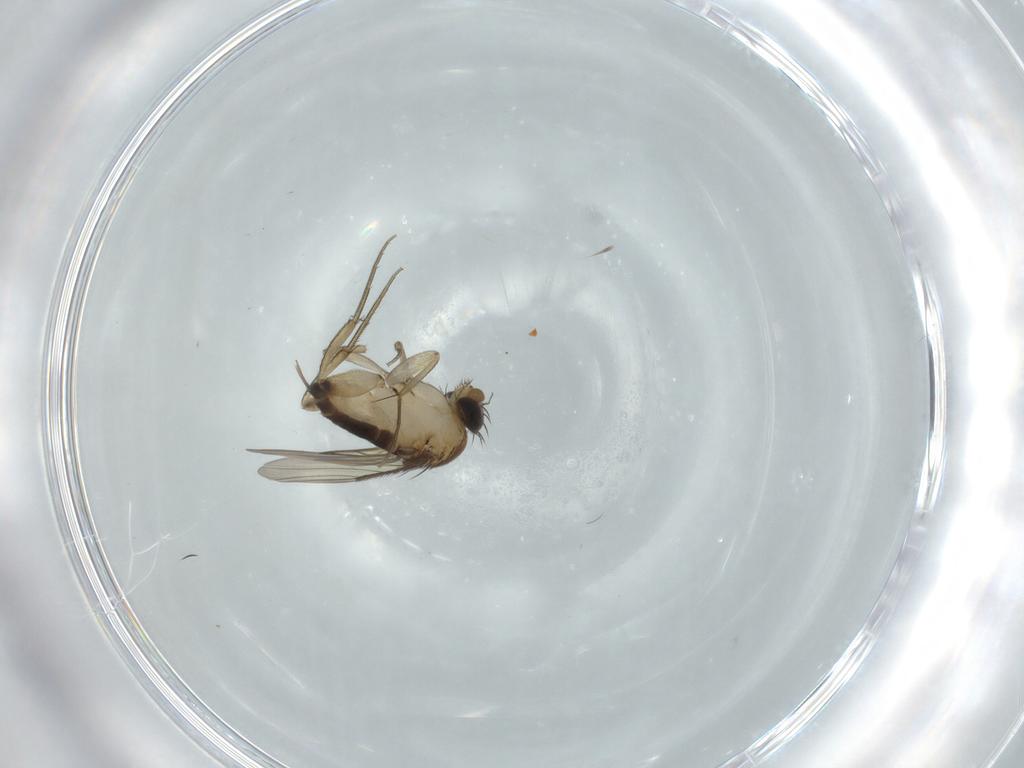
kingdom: Animalia
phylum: Arthropoda
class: Insecta
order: Diptera
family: Phoridae
